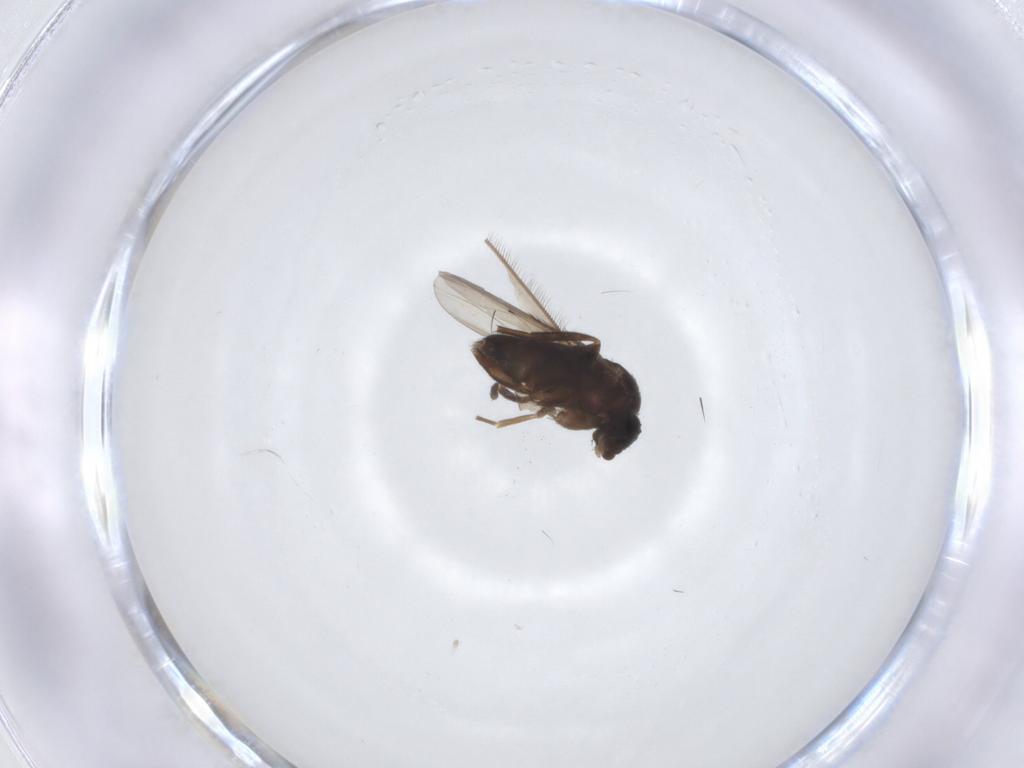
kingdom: Animalia
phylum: Arthropoda
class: Insecta
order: Diptera
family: Phoridae
